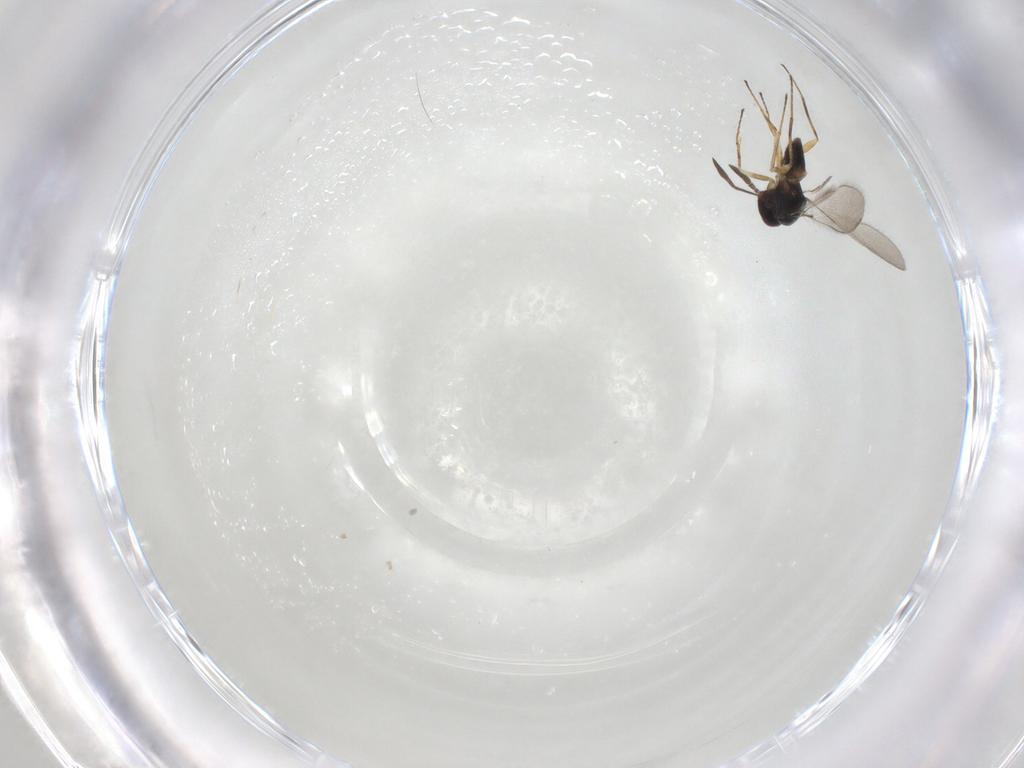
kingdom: Animalia
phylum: Arthropoda
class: Insecta
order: Hymenoptera
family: Mymaridae
